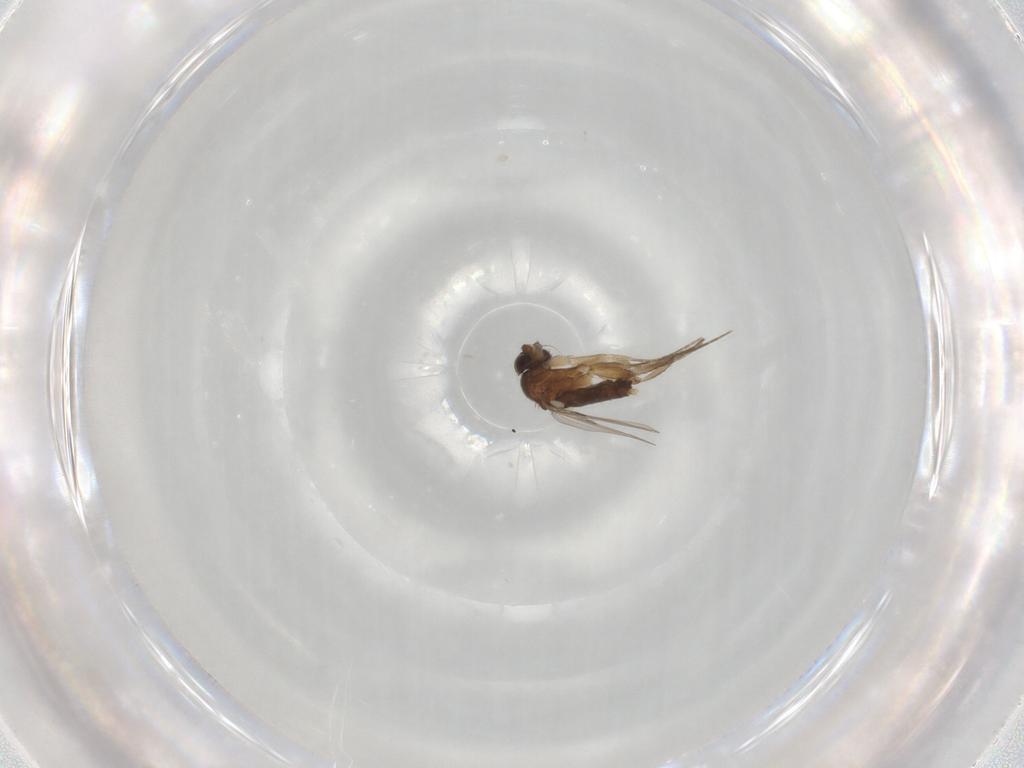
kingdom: Animalia
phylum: Arthropoda
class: Insecta
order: Diptera
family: Phoridae
